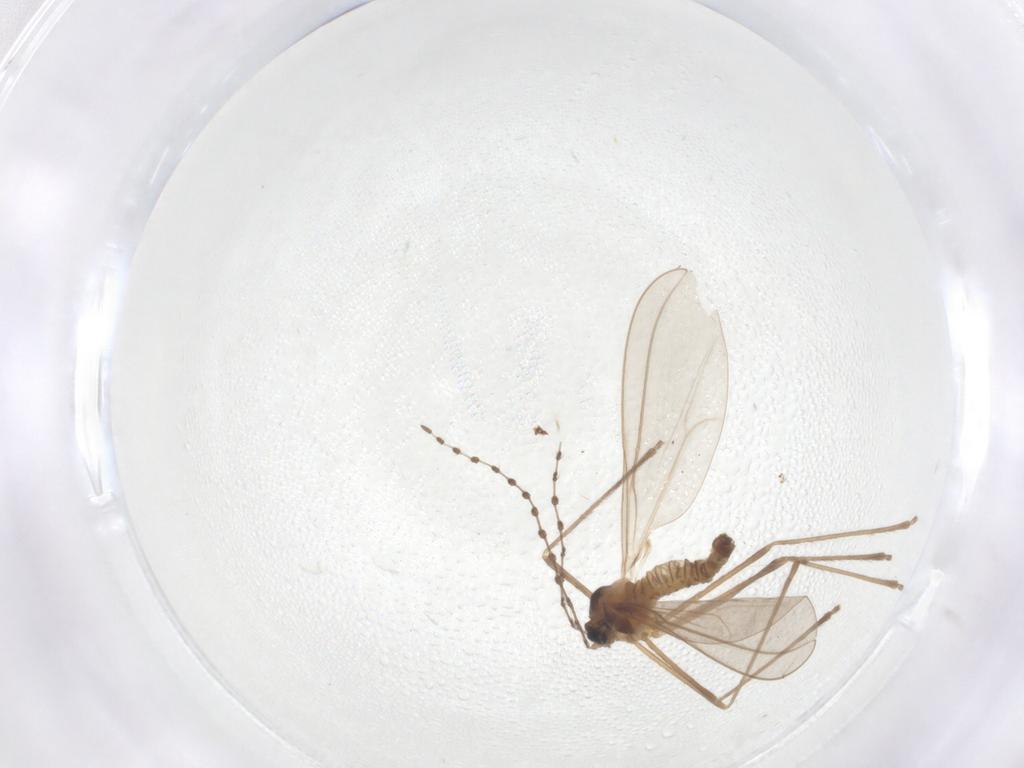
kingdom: Animalia
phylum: Arthropoda
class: Insecta
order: Diptera
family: Cecidomyiidae
